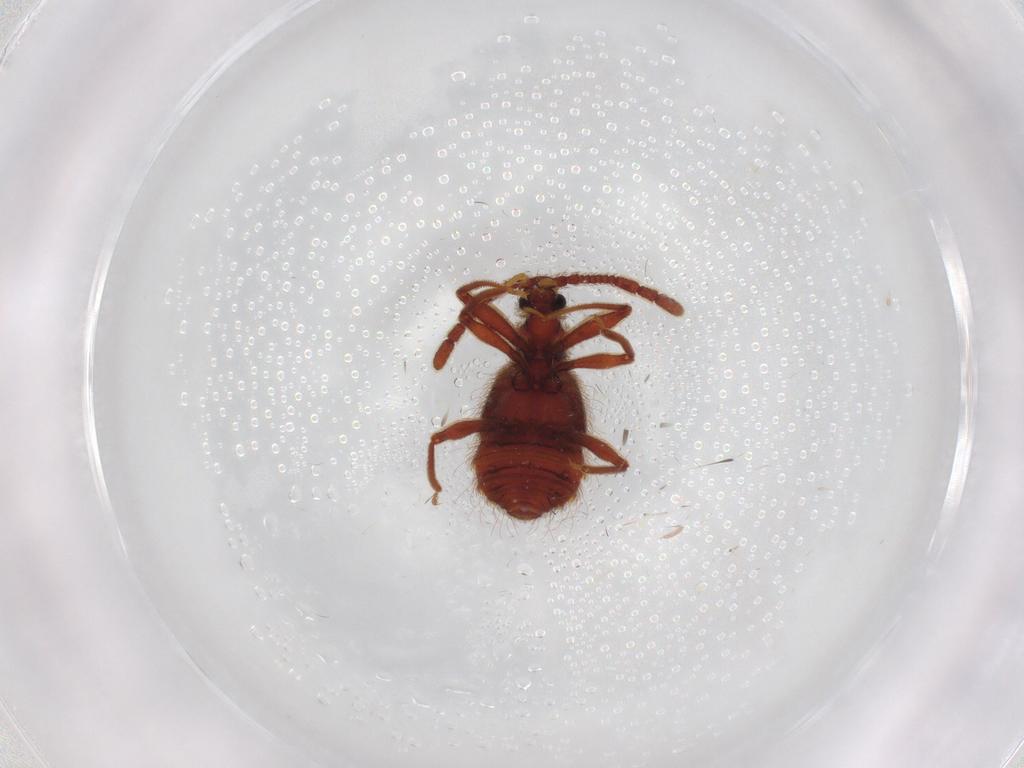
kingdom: Animalia
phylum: Arthropoda
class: Insecta
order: Coleoptera
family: Staphylinidae
